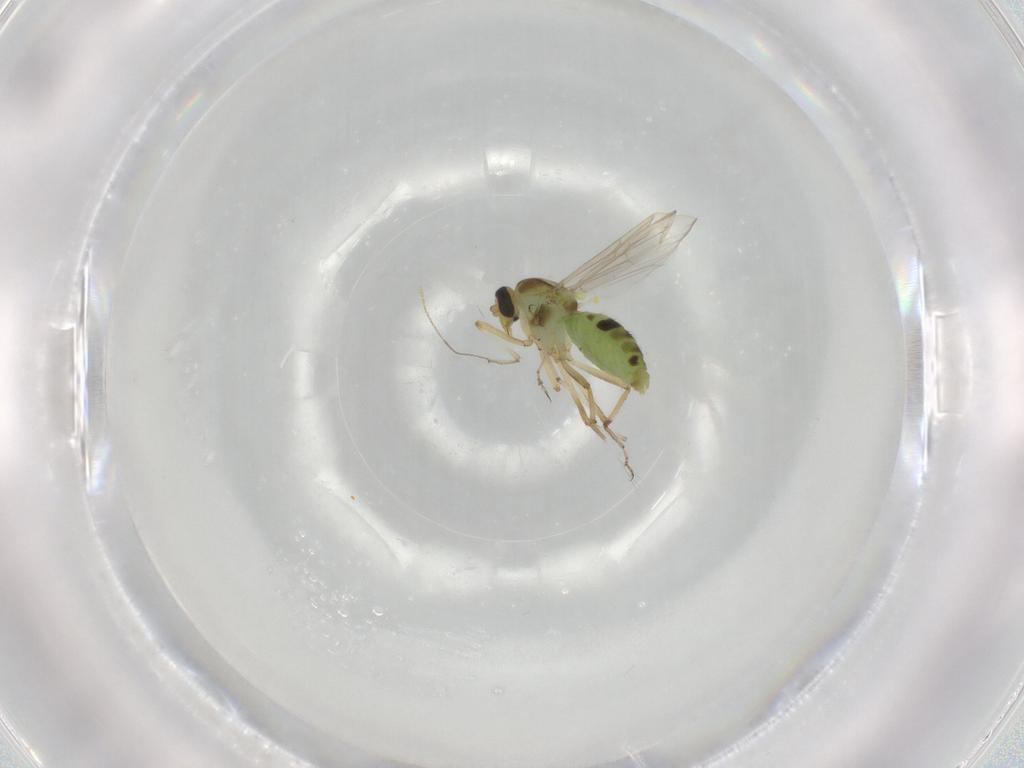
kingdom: Animalia
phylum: Arthropoda
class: Insecta
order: Diptera
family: Ceratopogonidae
